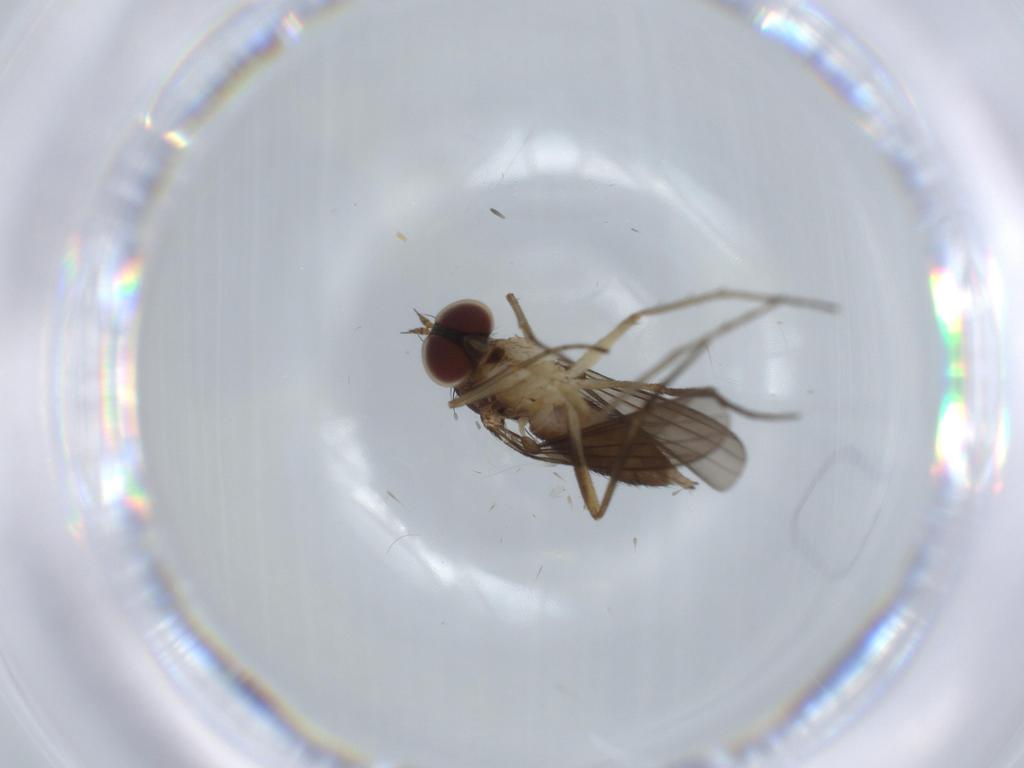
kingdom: Animalia
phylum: Arthropoda
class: Insecta
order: Diptera
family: Dolichopodidae
